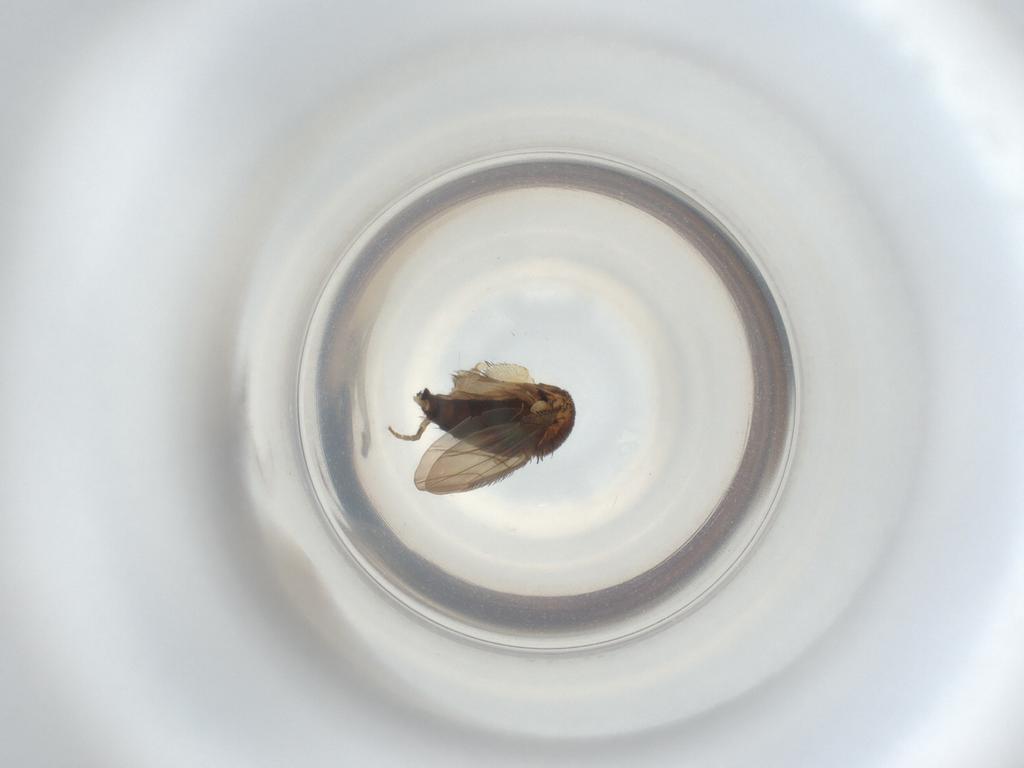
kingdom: Animalia
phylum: Arthropoda
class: Insecta
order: Diptera
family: Phoridae
